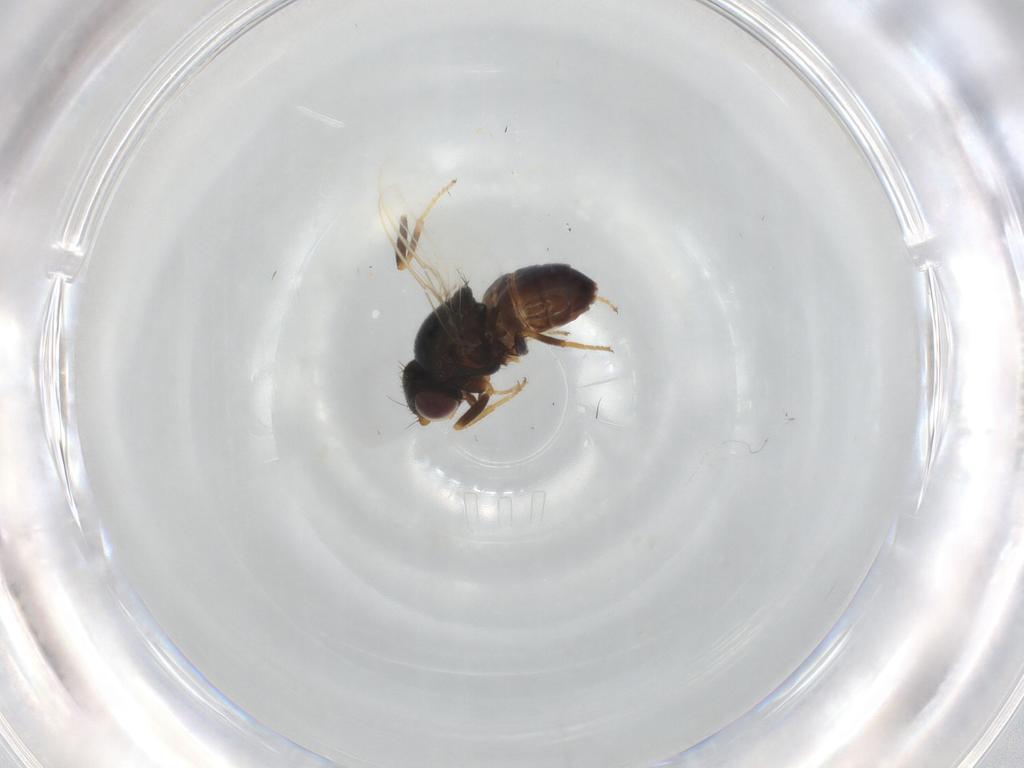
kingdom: Animalia
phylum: Arthropoda
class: Insecta
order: Diptera
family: Chloropidae
